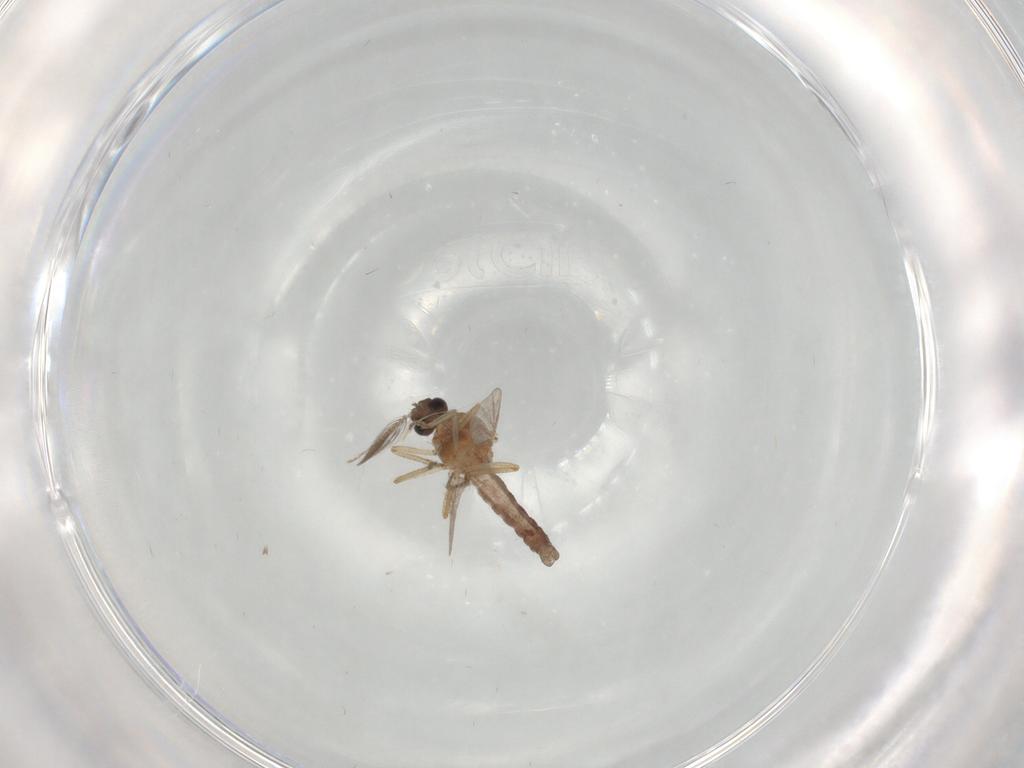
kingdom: Animalia
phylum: Arthropoda
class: Insecta
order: Diptera
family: Ceratopogonidae
